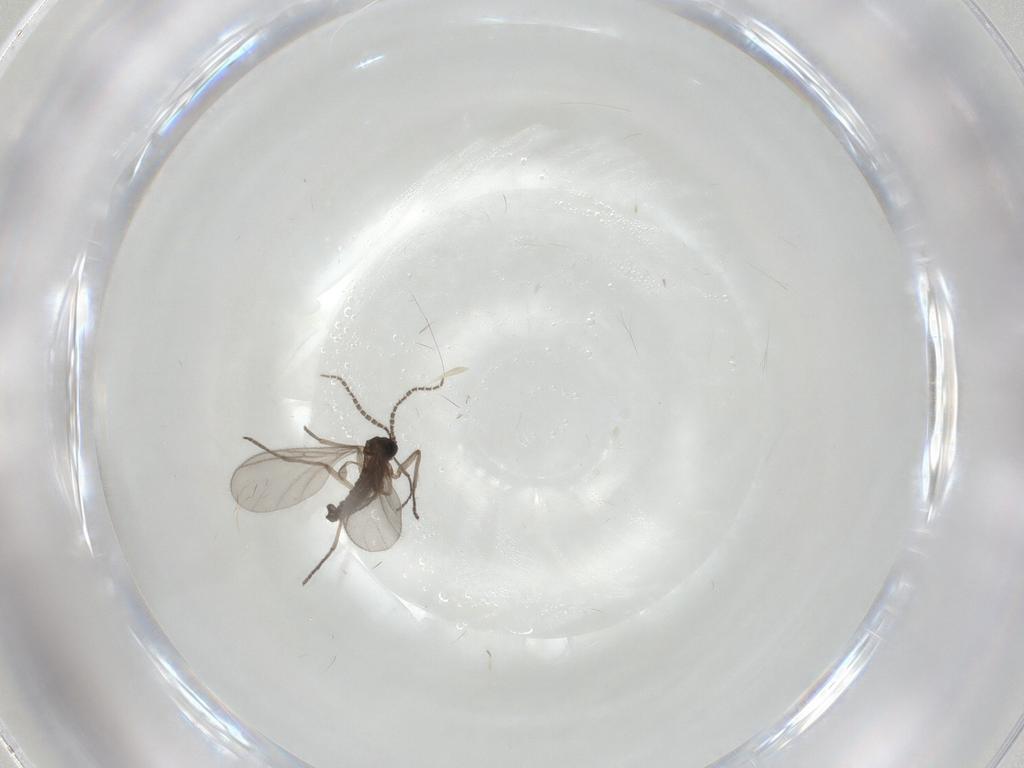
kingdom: Animalia
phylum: Arthropoda
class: Insecta
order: Diptera
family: Sciaridae
